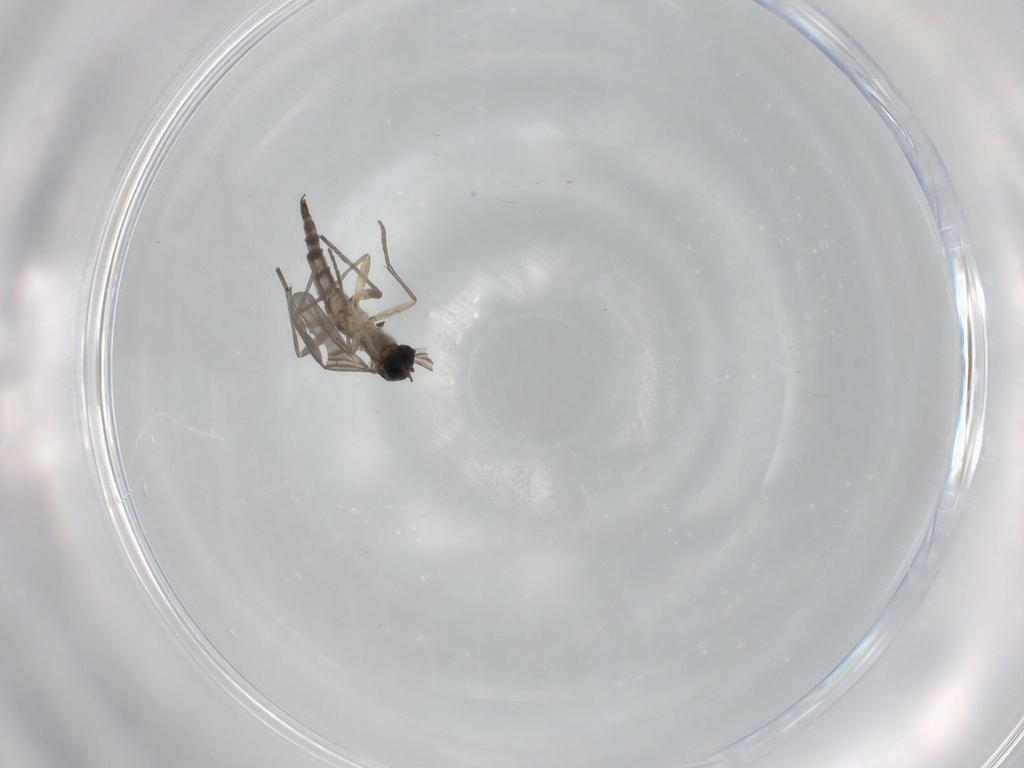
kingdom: Animalia
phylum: Arthropoda
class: Insecta
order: Diptera
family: Sciaridae
